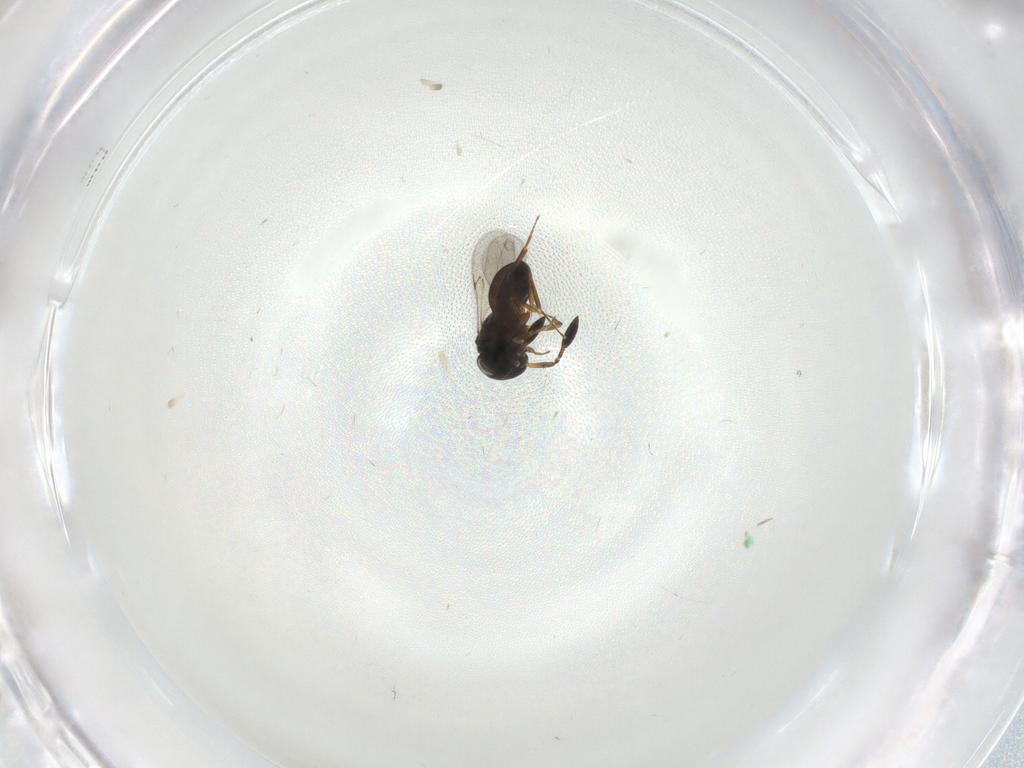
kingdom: Animalia
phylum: Arthropoda
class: Insecta
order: Hymenoptera
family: Scelionidae
